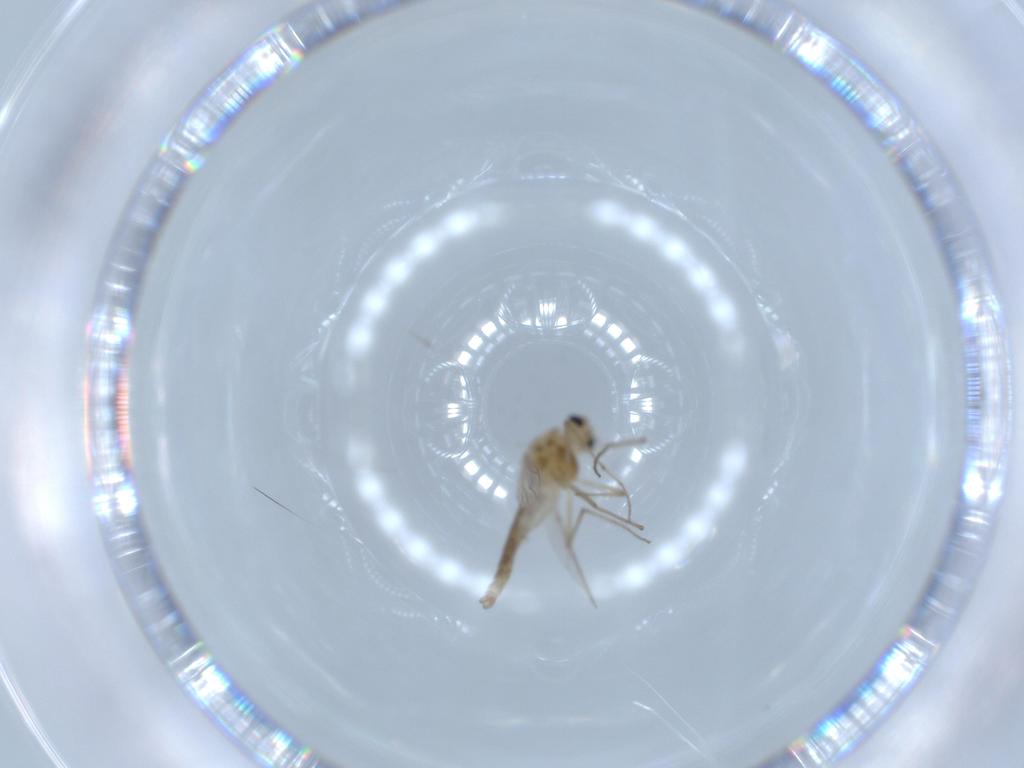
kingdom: Animalia
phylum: Arthropoda
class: Insecta
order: Diptera
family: Chironomidae
